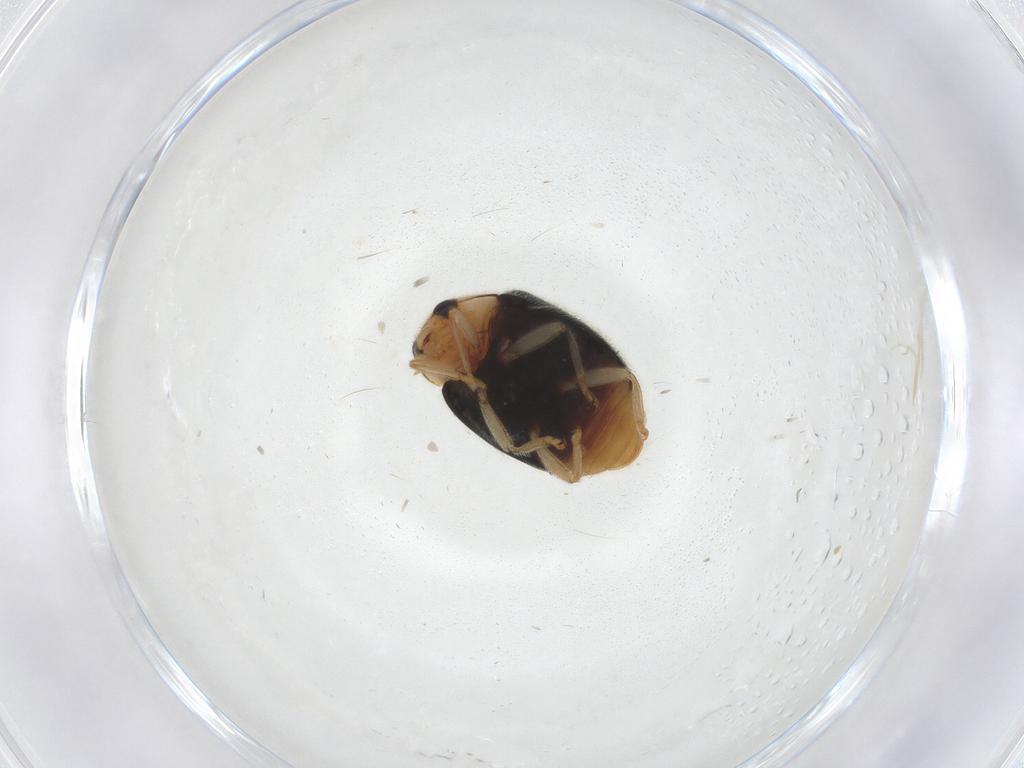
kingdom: Animalia
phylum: Arthropoda
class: Insecta
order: Coleoptera
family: Coccinellidae
